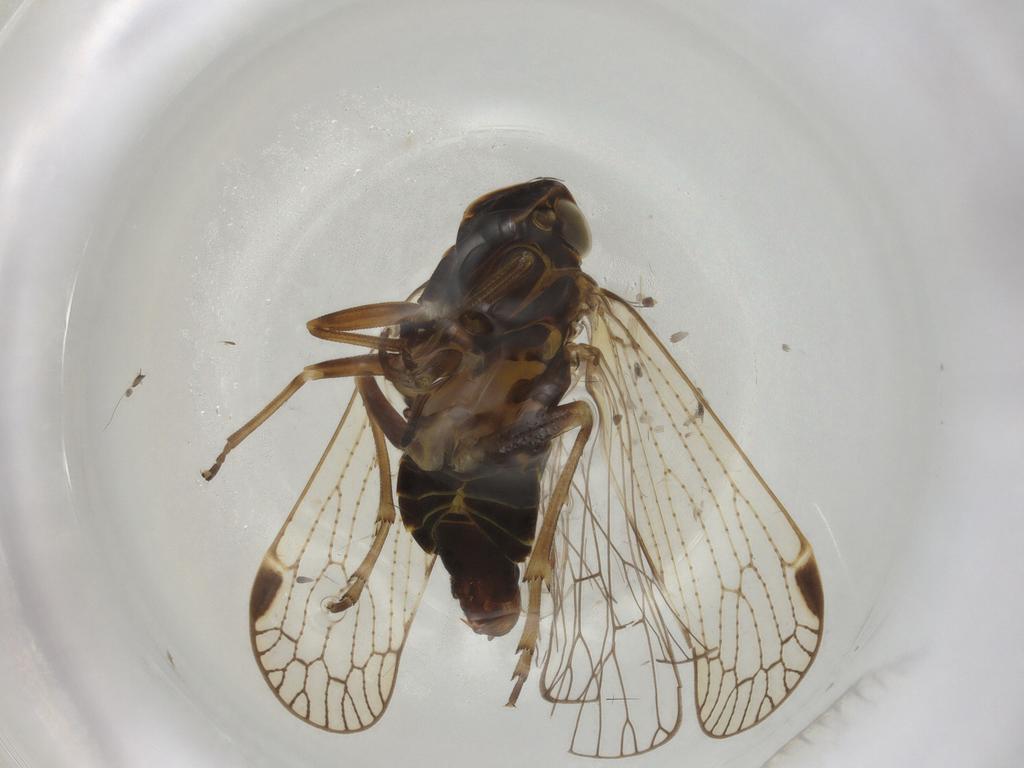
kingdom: Animalia
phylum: Arthropoda
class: Insecta
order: Hemiptera
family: Cixiidae
